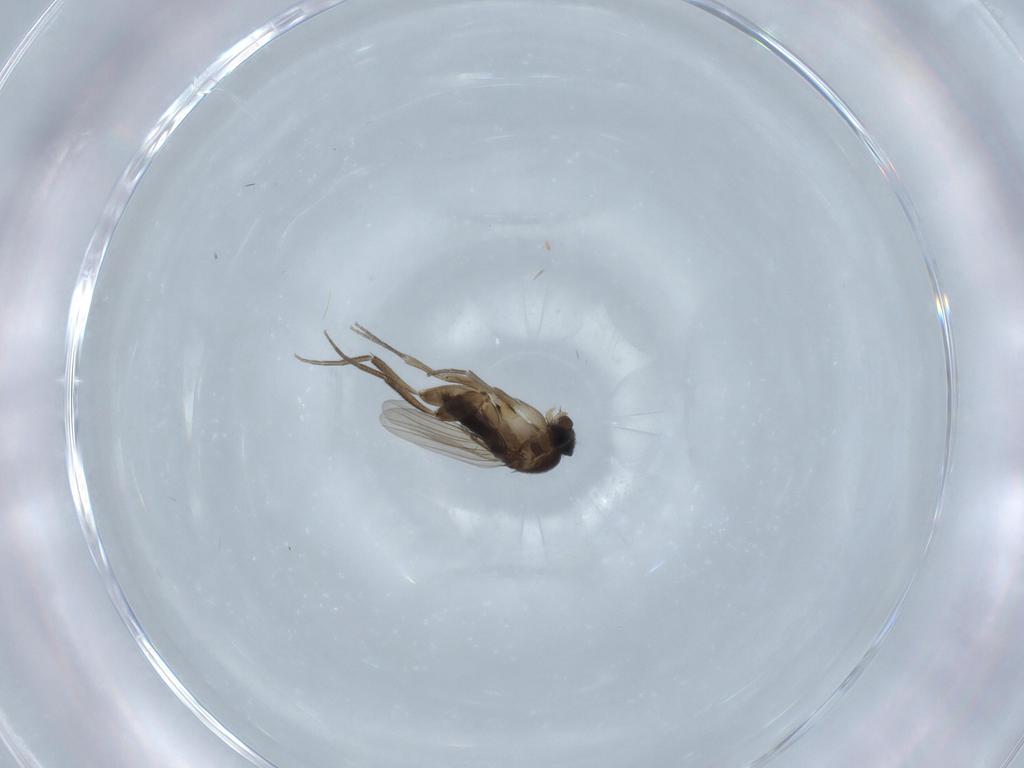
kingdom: Animalia
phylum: Arthropoda
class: Insecta
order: Diptera
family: Phoridae
